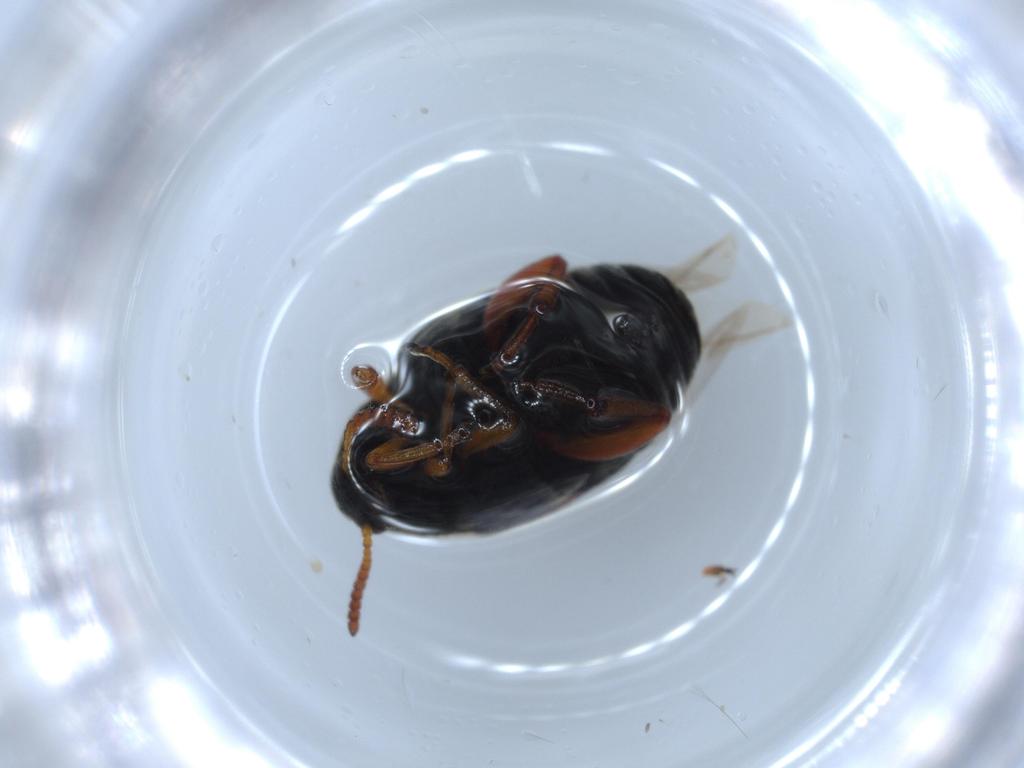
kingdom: Animalia
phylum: Arthropoda
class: Insecta
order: Coleoptera
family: Chrysomelidae
